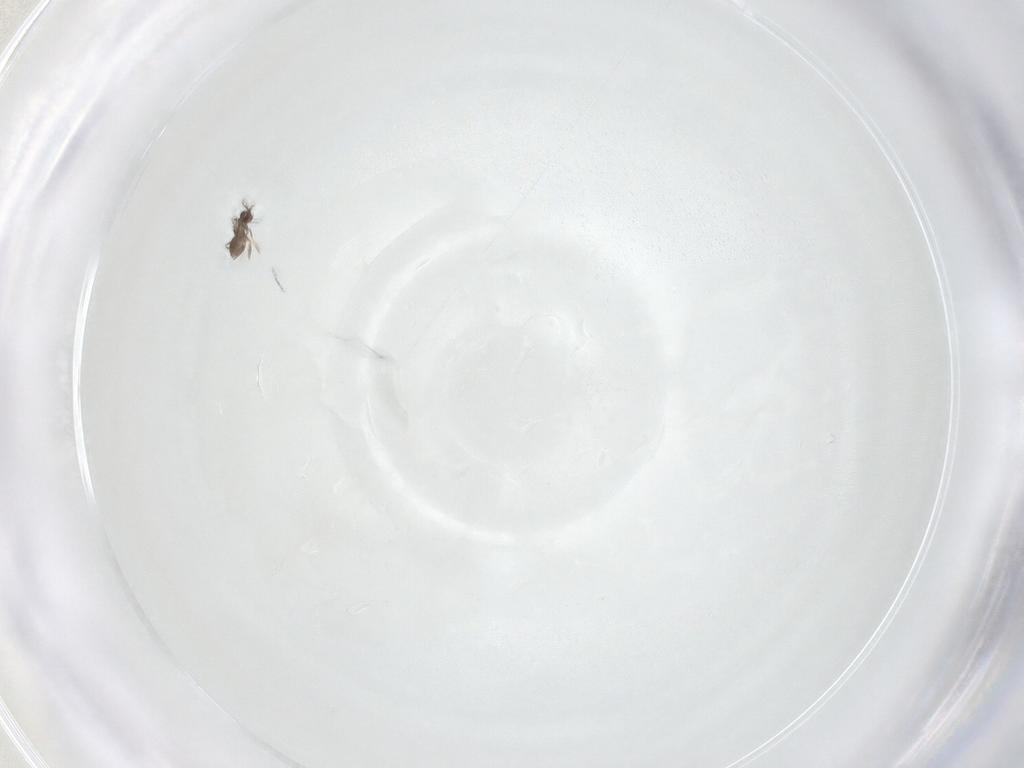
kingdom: Animalia
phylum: Arthropoda
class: Insecta
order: Hymenoptera
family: Mymaridae
